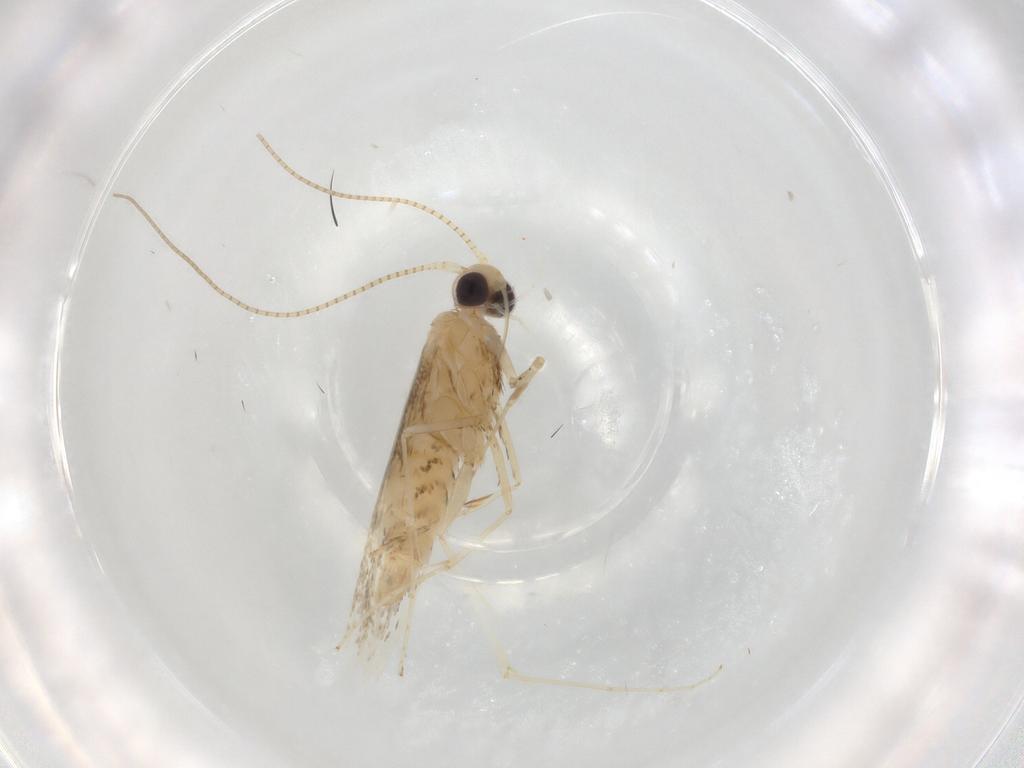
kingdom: Animalia
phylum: Arthropoda
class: Insecta
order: Lepidoptera
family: Gracillariidae
